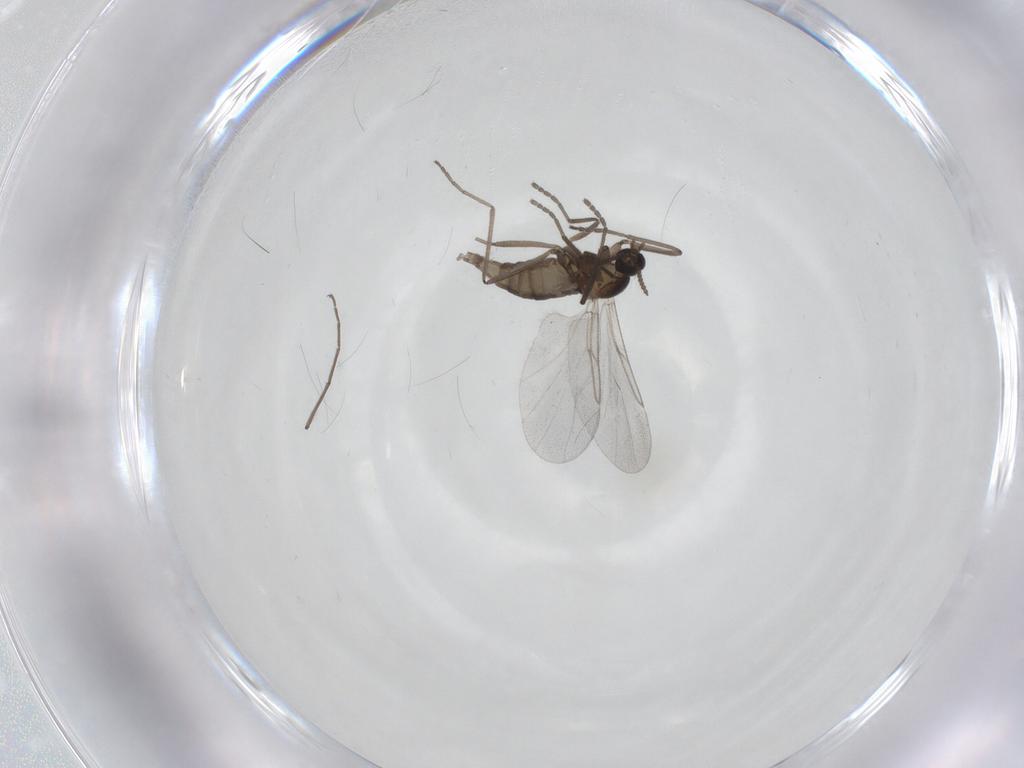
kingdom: Animalia
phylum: Arthropoda
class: Insecta
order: Diptera
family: Cecidomyiidae
